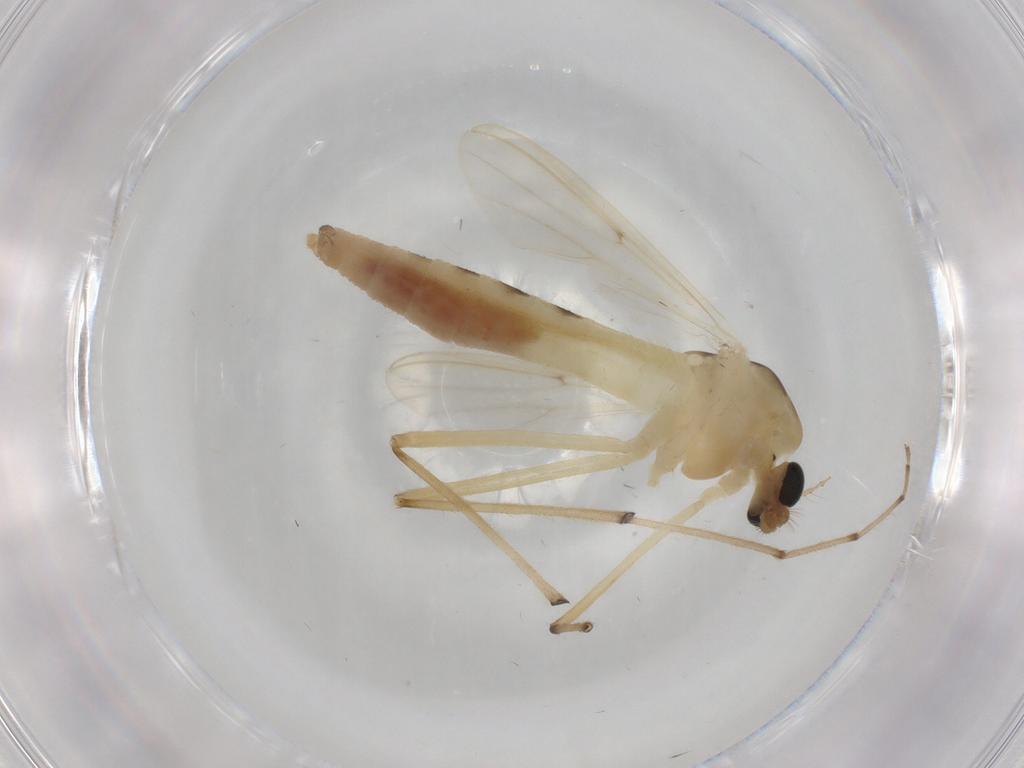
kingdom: Animalia
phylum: Arthropoda
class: Insecta
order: Diptera
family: Chironomidae
